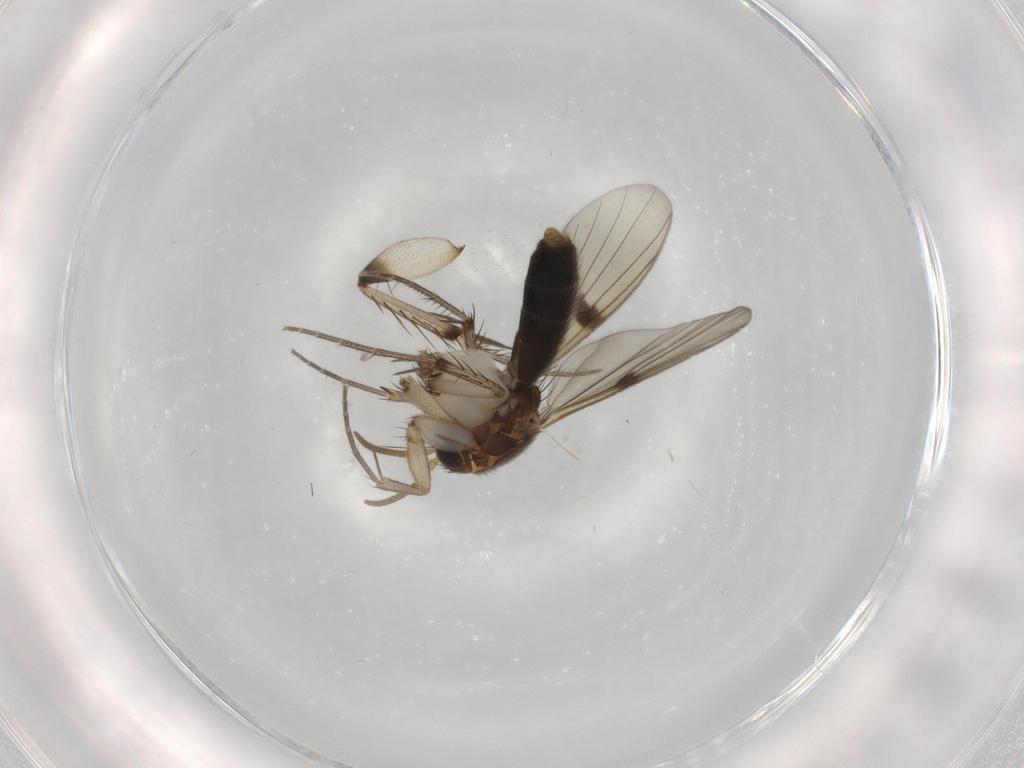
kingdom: Animalia
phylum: Arthropoda
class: Insecta
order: Diptera
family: Mycetophilidae
